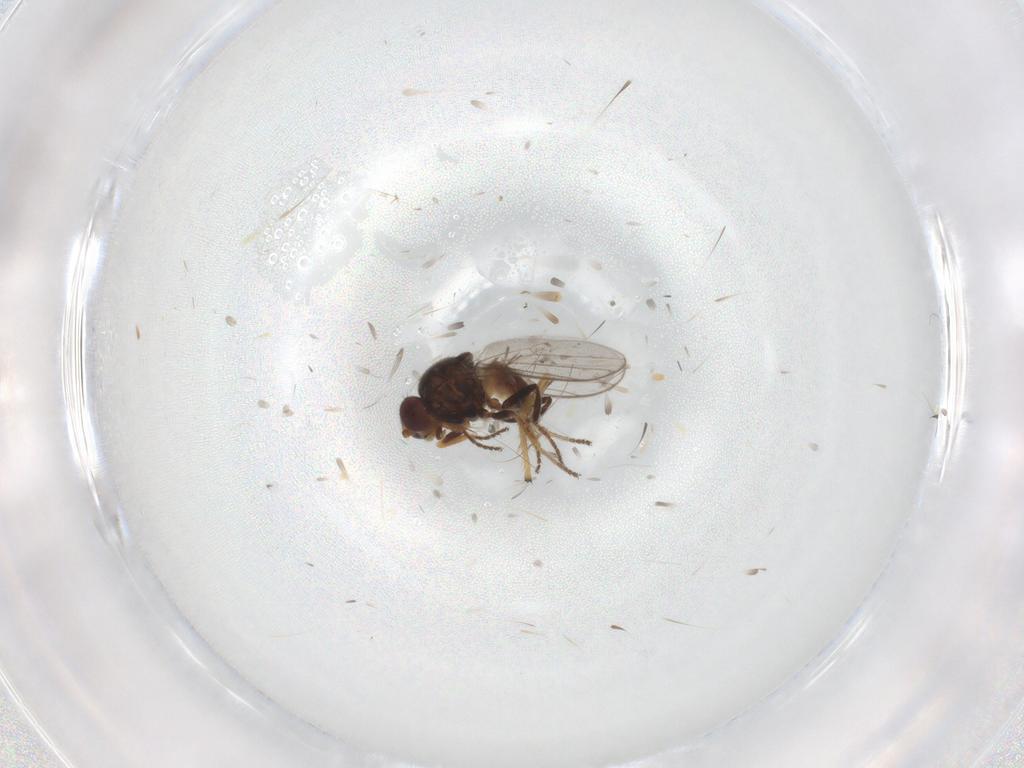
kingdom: Animalia
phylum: Arthropoda
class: Insecta
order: Diptera
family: Chloropidae
